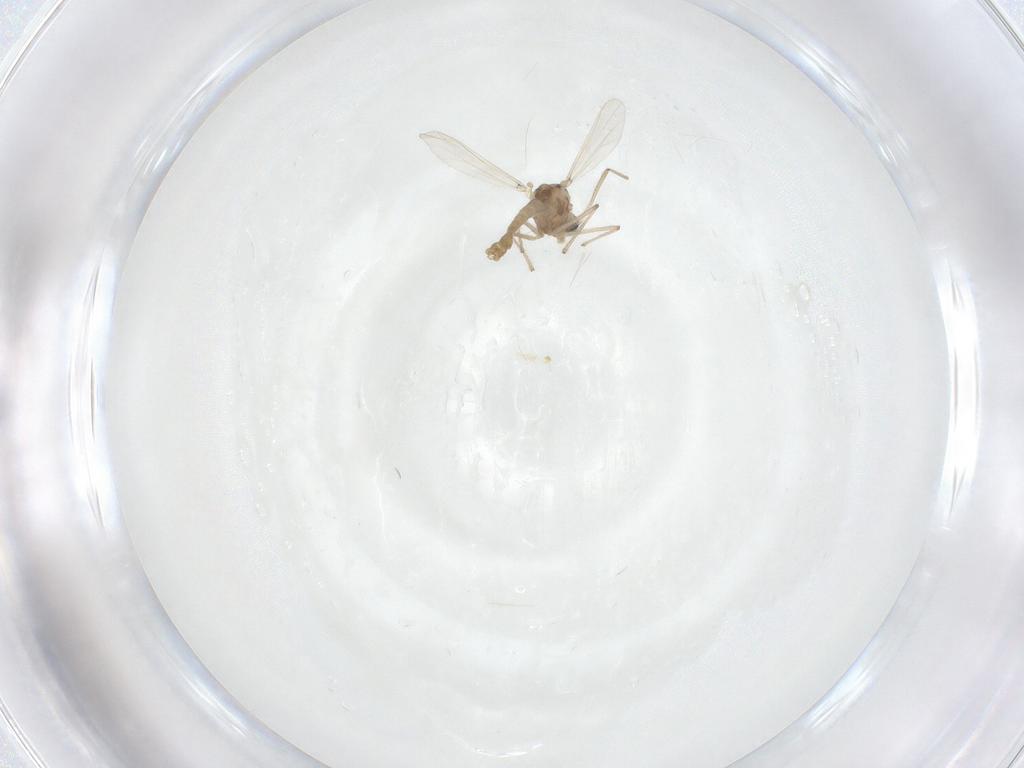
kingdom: Animalia
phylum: Arthropoda
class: Insecta
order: Diptera
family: Chironomidae
